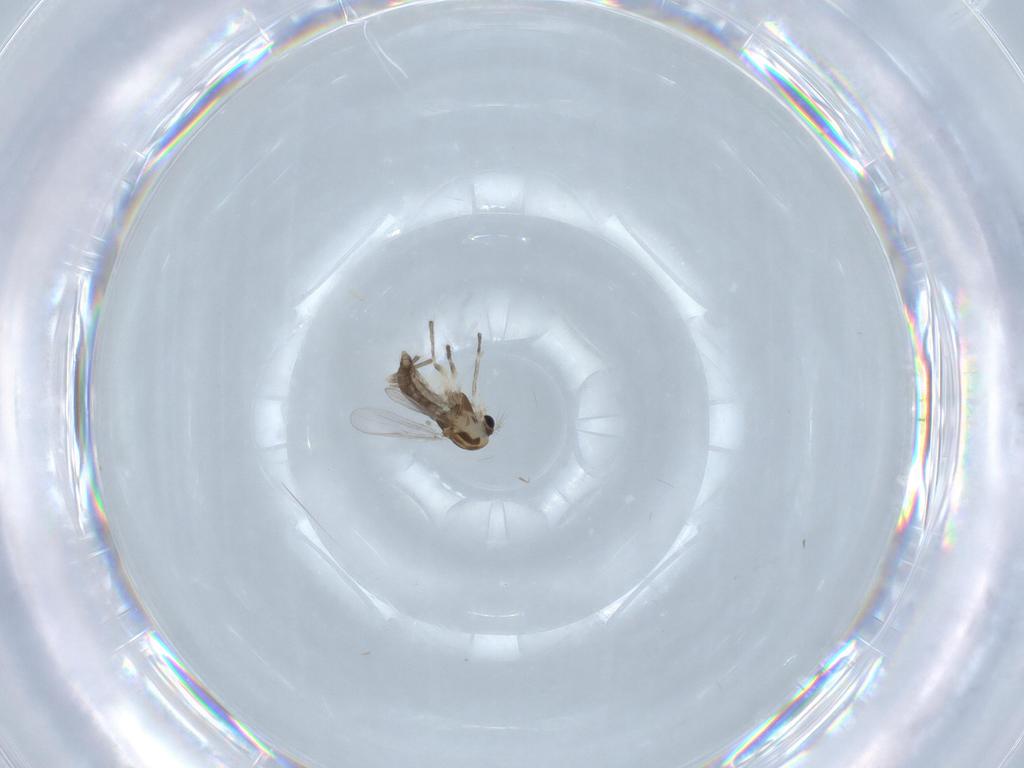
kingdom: Animalia
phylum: Arthropoda
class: Insecta
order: Diptera
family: Chironomidae
